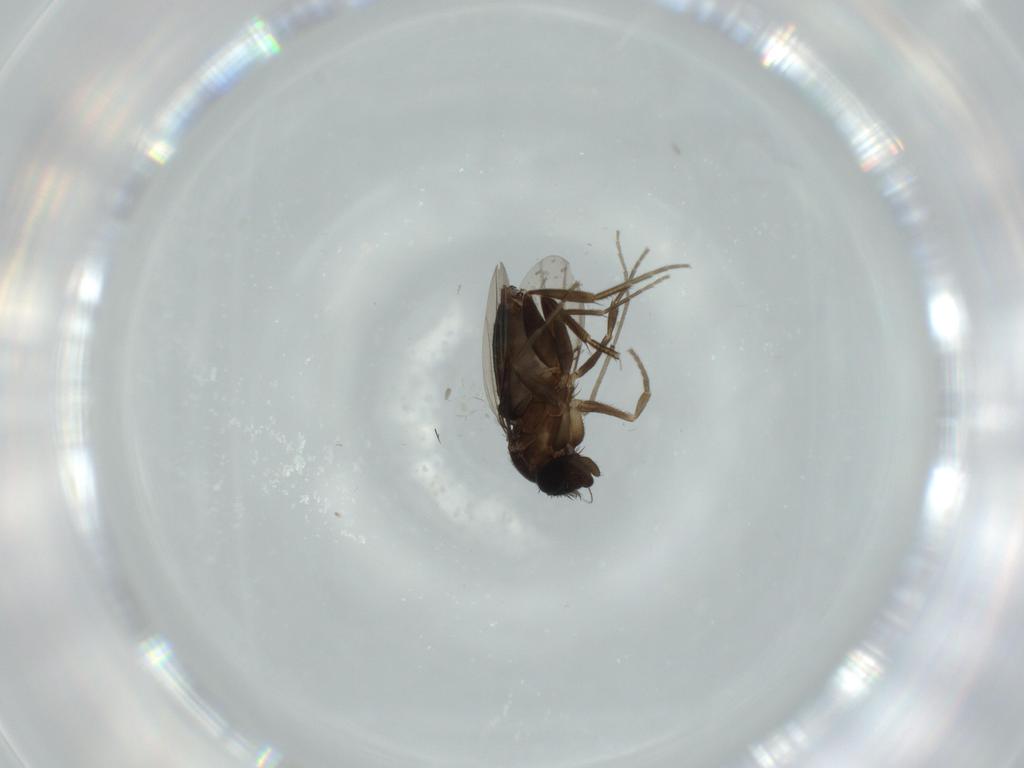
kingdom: Animalia
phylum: Arthropoda
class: Insecta
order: Diptera
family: Phoridae
